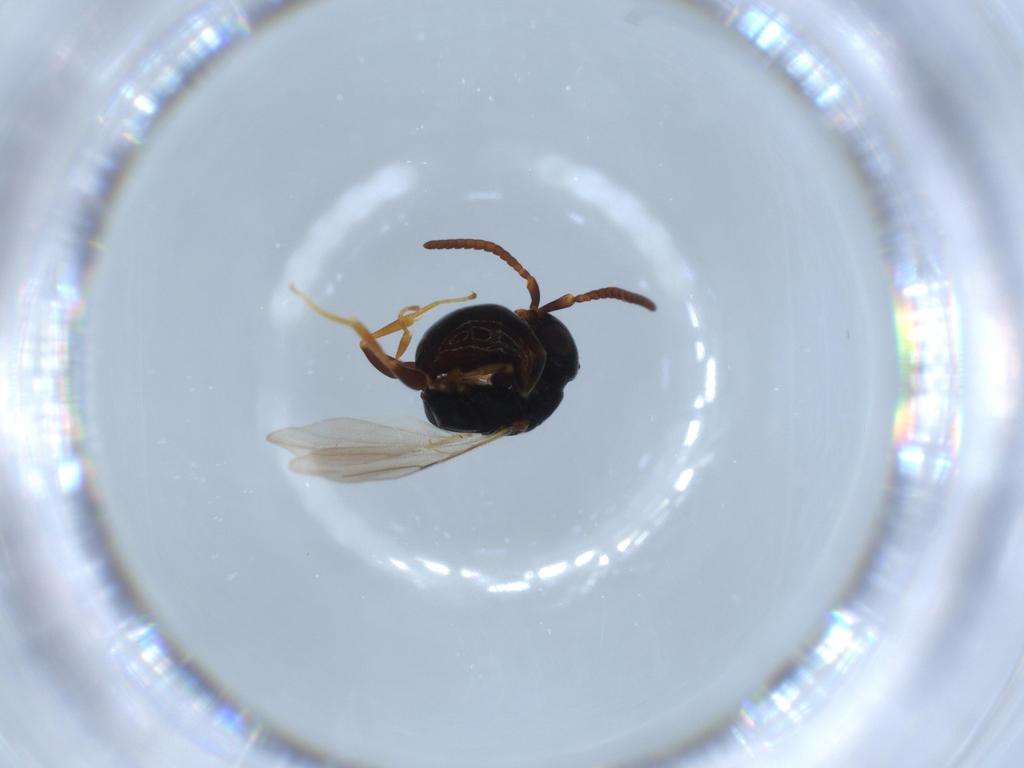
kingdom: Animalia
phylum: Arthropoda
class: Insecta
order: Hymenoptera
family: Bethylidae
